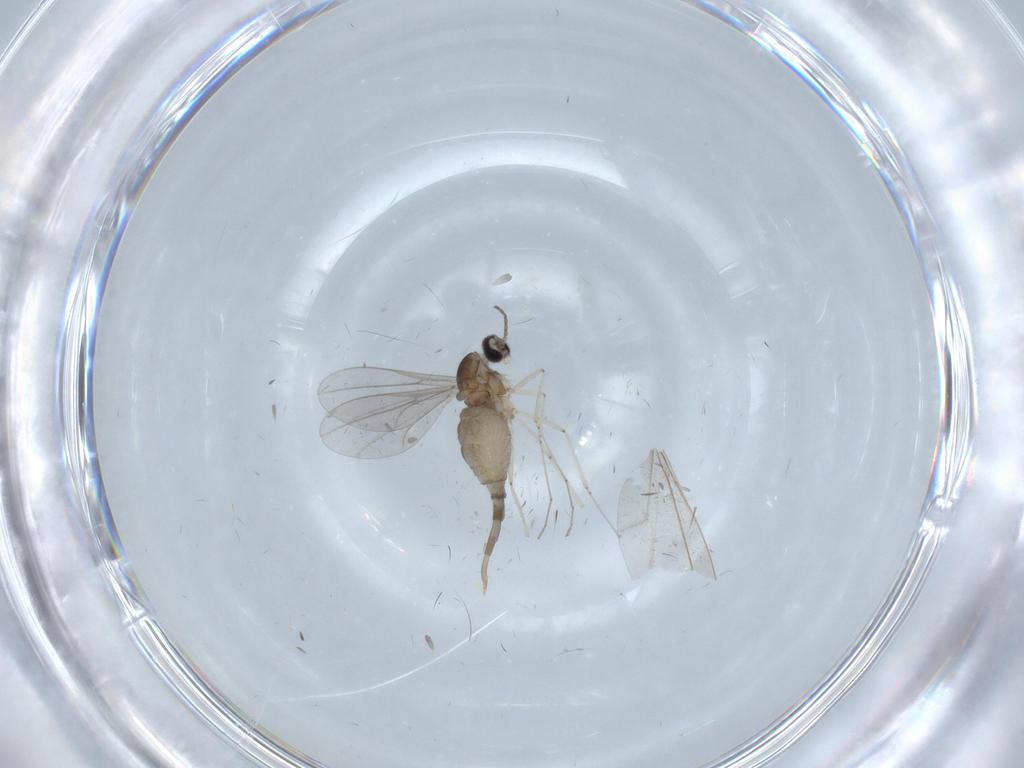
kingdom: Animalia
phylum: Arthropoda
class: Insecta
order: Diptera
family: Cecidomyiidae
